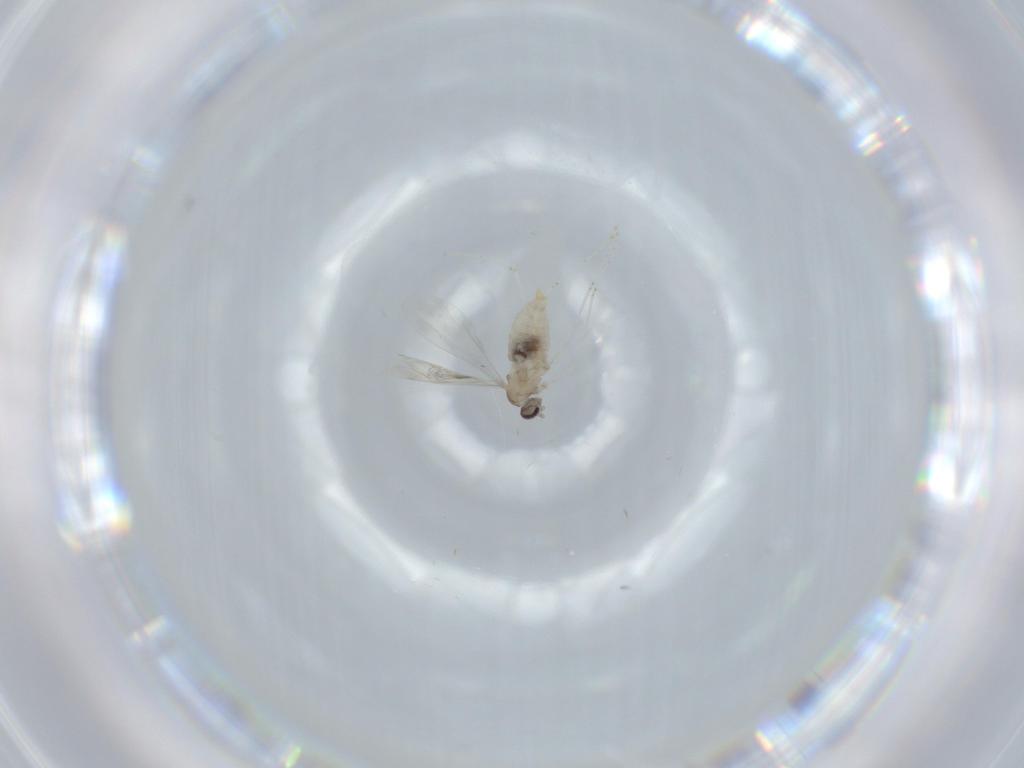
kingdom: Animalia
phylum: Arthropoda
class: Insecta
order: Diptera
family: Cecidomyiidae
